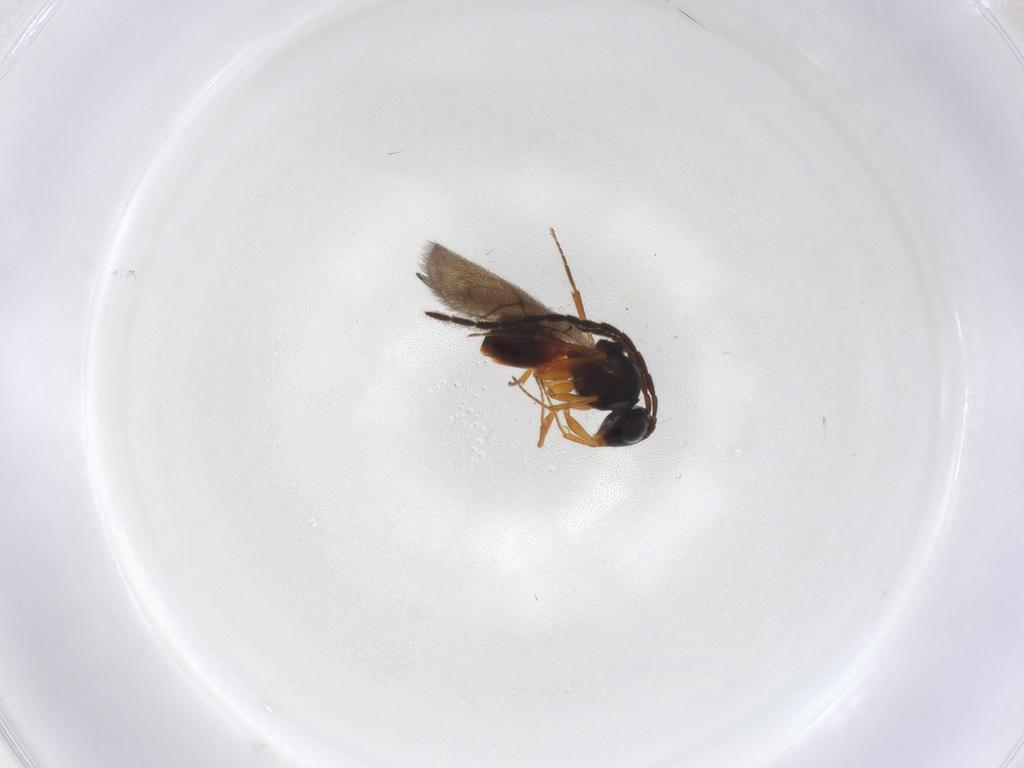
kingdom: Animalia
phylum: Arthropoda
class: Insecta
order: Hymenoptera
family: Figitidae
